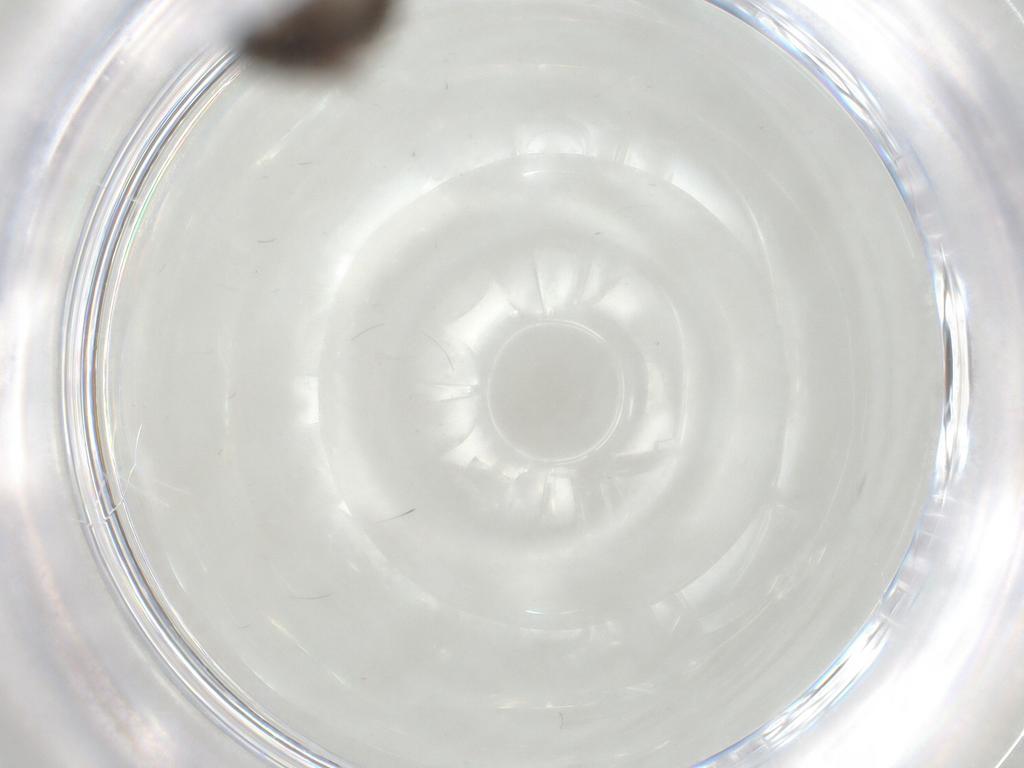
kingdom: Animalia
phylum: Arthropoda
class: Insecta
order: Diptera
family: Chironomidae
